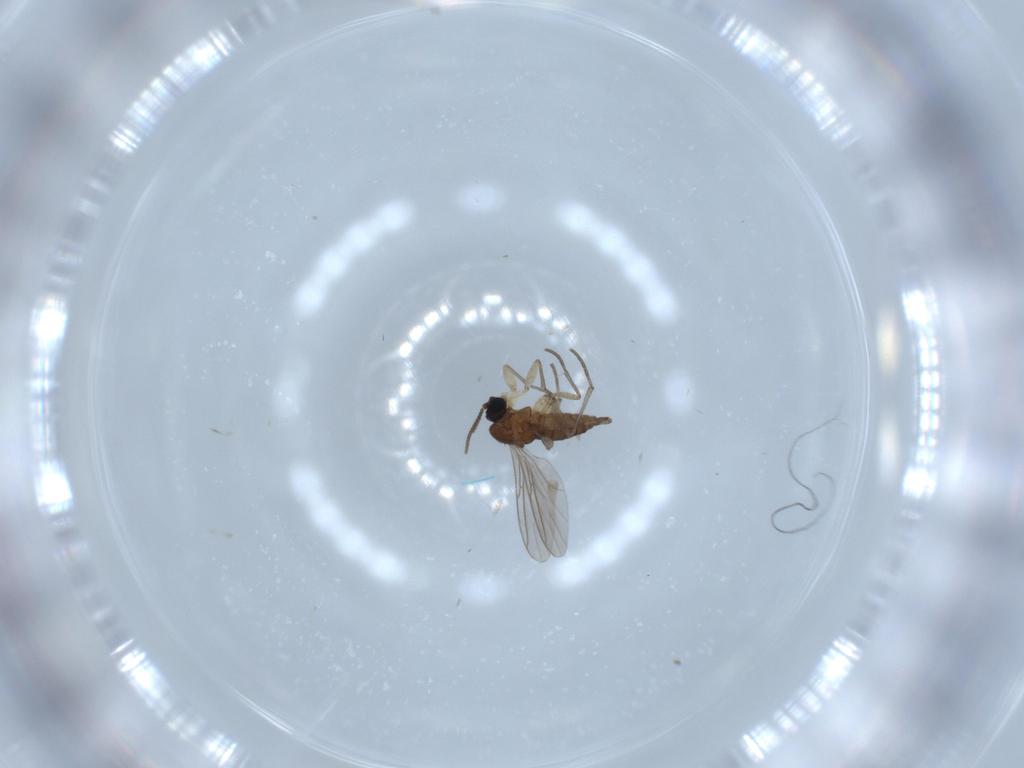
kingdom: Animalia
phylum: Arthropoda
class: Insecta
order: Diptera
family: Sciaridae
